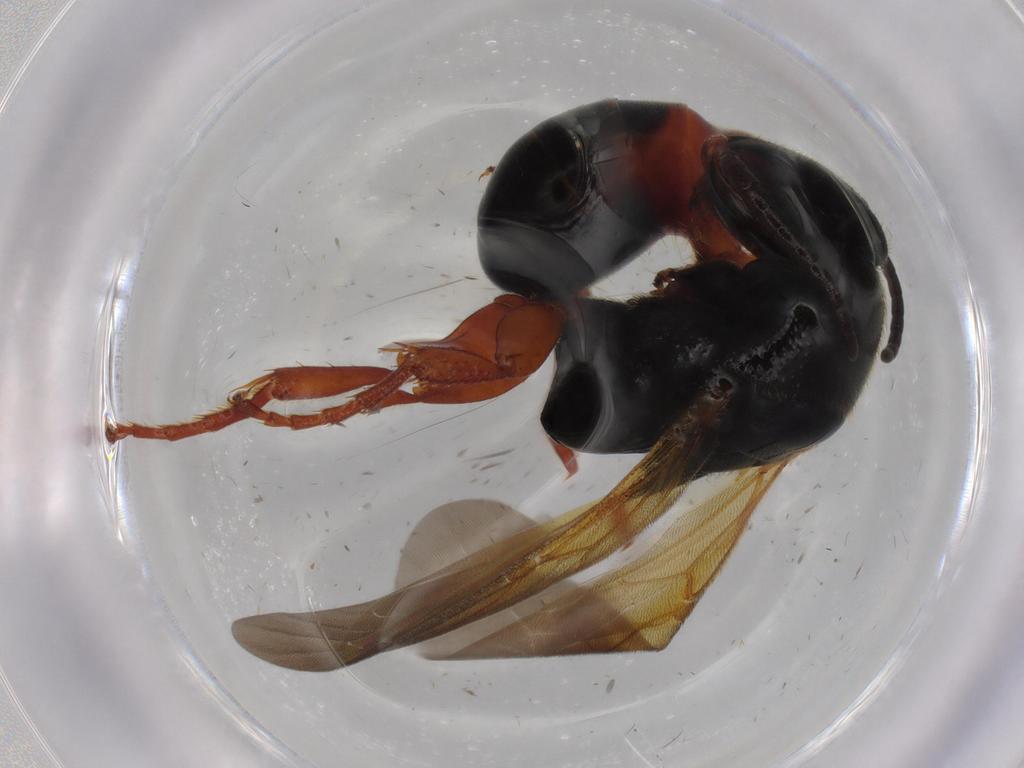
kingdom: Animalia
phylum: Arthropoda
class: Insecta
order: Hymenoptera
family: Bethylidae
